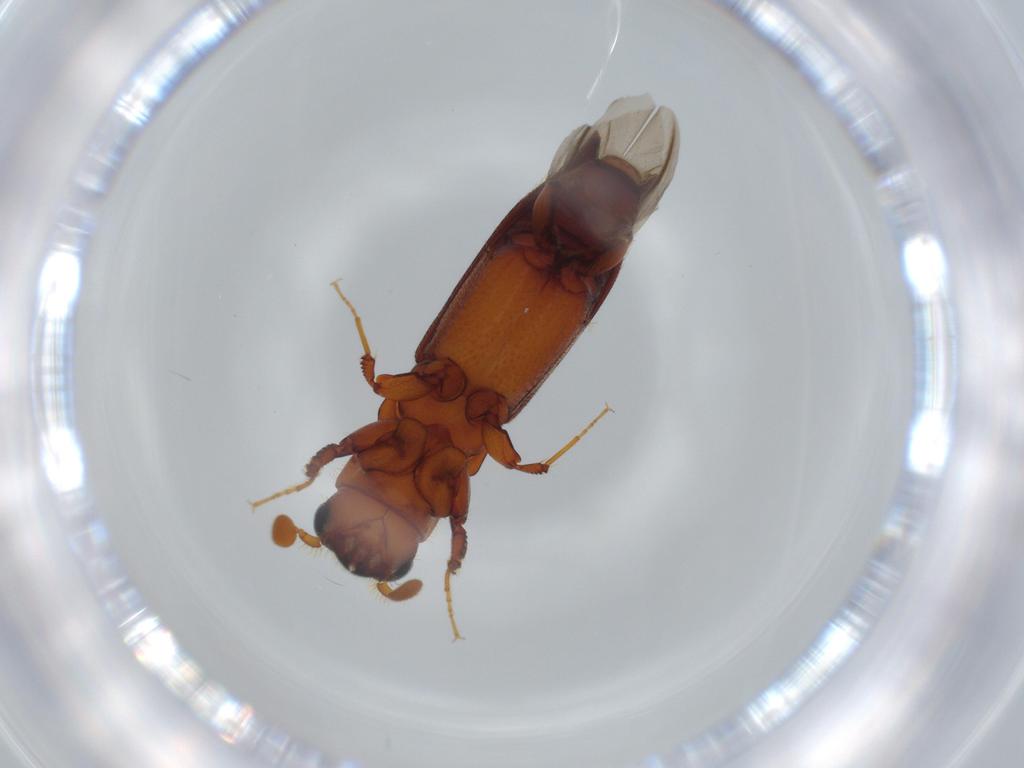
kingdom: Animalia
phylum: Arthropoda
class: Insecta
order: Coleoptera
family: Curculionidae
